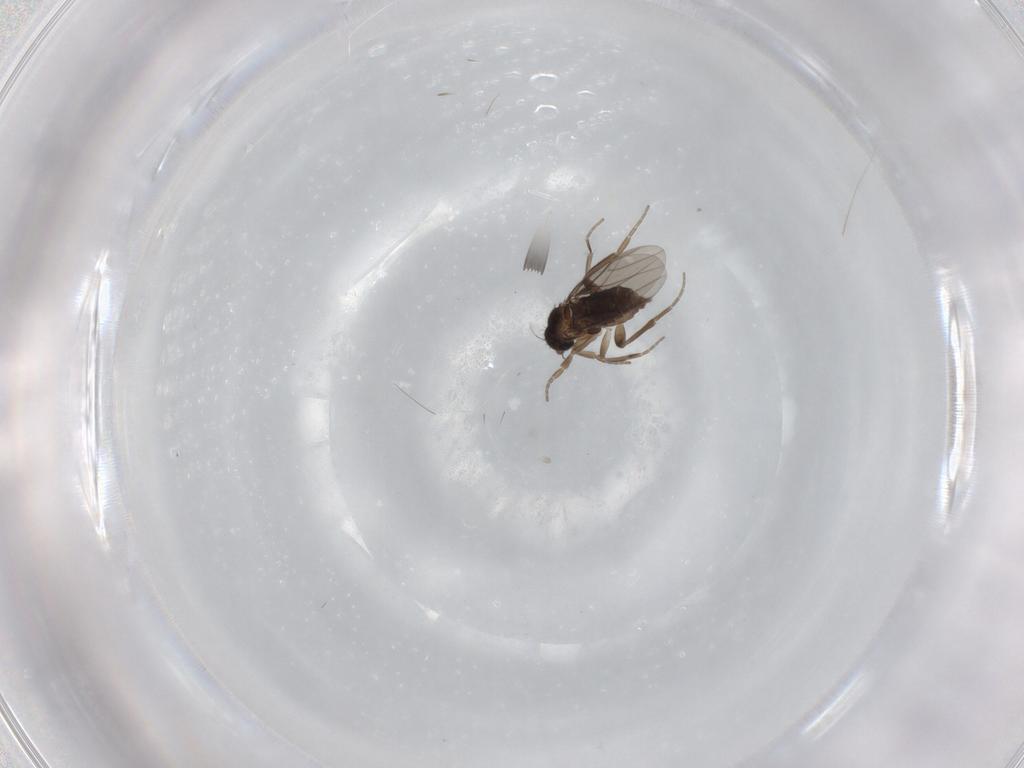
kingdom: Animalia
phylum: Arthropoda
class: Insecta
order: Diptera
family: Phoridae
